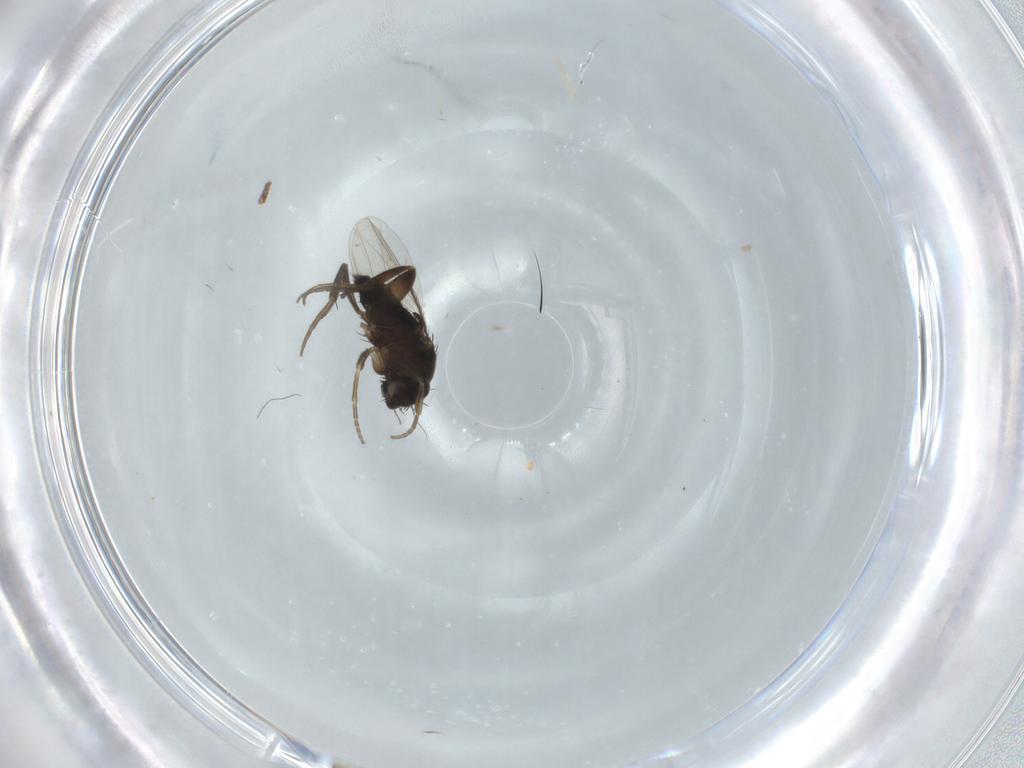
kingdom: Animalia
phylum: Arthropoda
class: Insecta
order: Diptera
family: Phoridae
